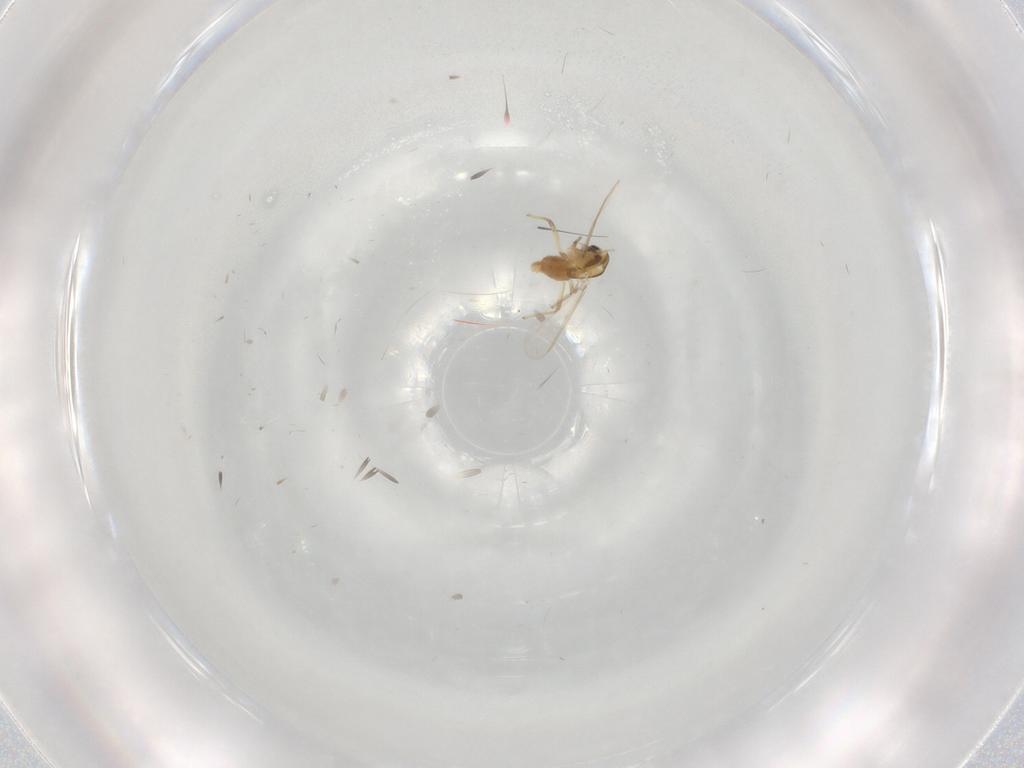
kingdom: Animalia
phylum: Arthropoda
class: Insecta
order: Diptera
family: Chironomidae
